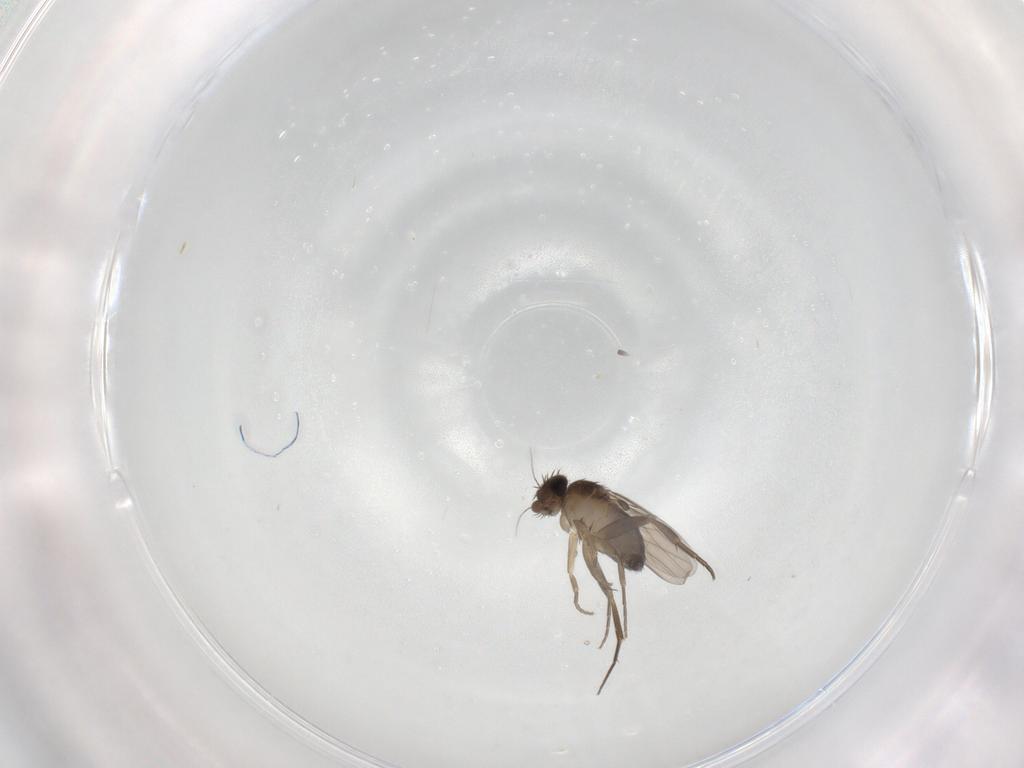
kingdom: Animalia
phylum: Arthropoda
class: Insecta
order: Diptera
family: Phoridae
